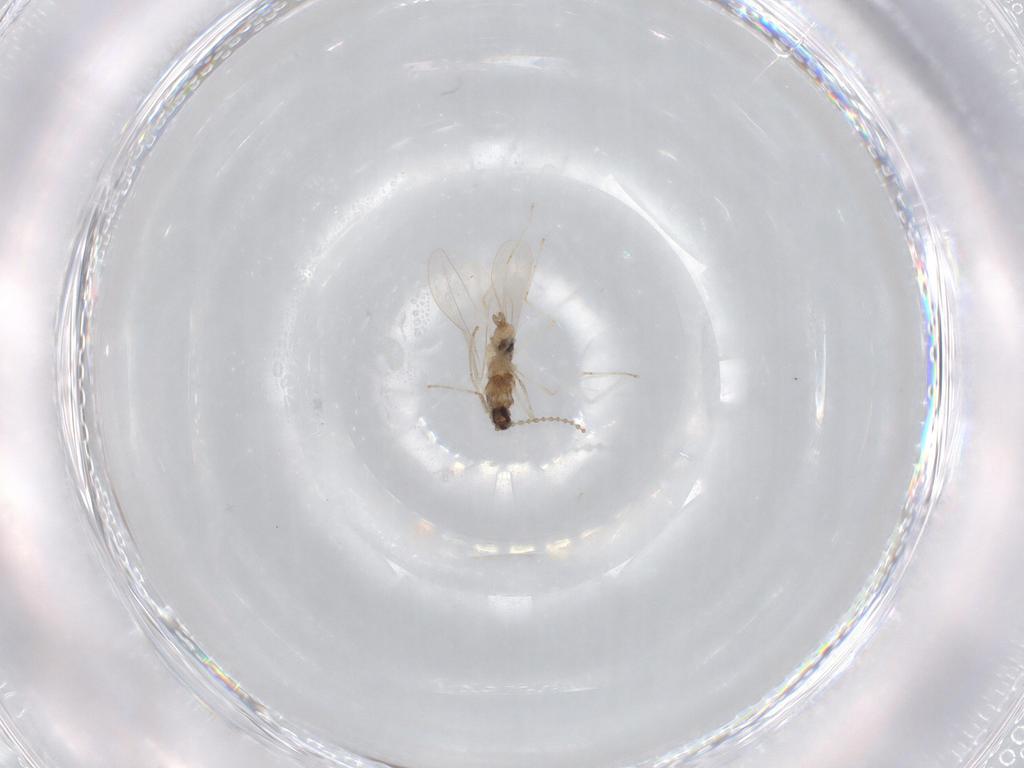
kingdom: Animalia
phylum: Arthropoda
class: Insecta
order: Diptera
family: Cecidomyiidae
